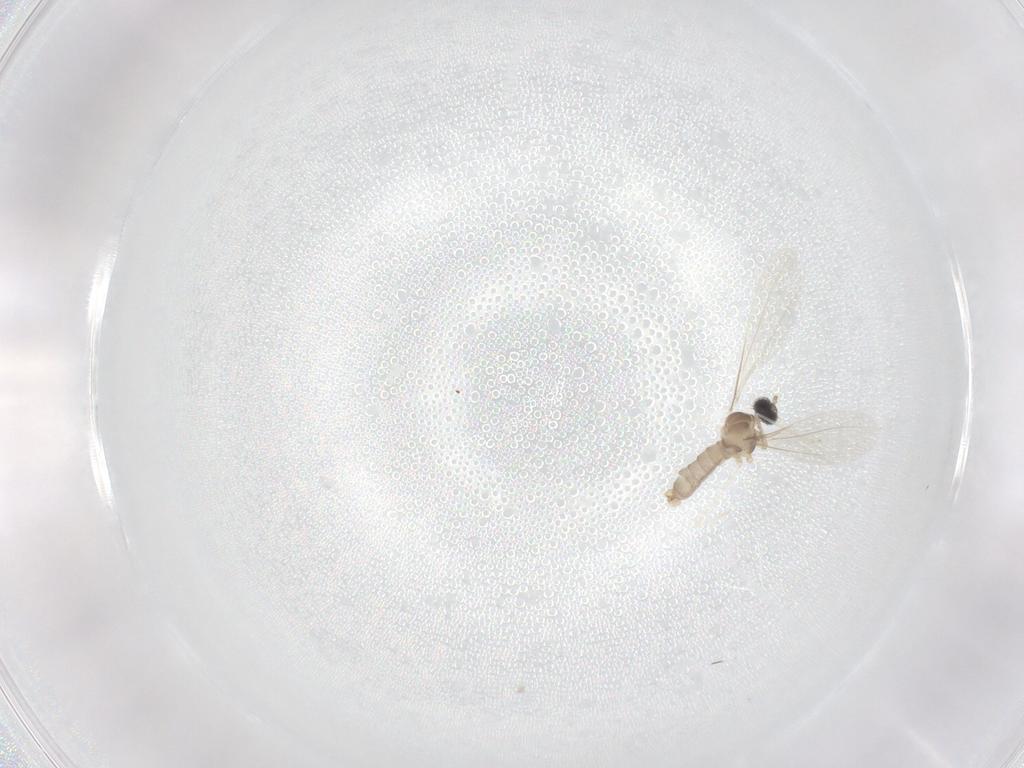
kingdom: Animalia
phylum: Arthropoda
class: Insecta
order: Diptera
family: Cecidomyiidae
